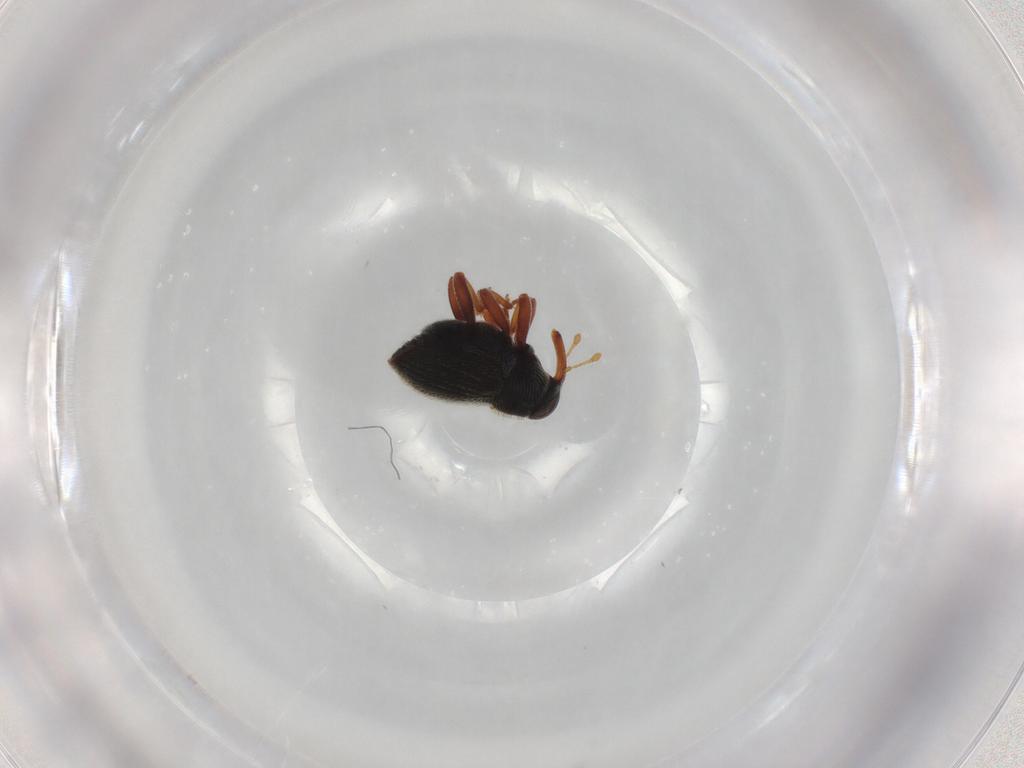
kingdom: Animalia
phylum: Arthropoda
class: Insecta
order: Coleoptera
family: Curculionidae
